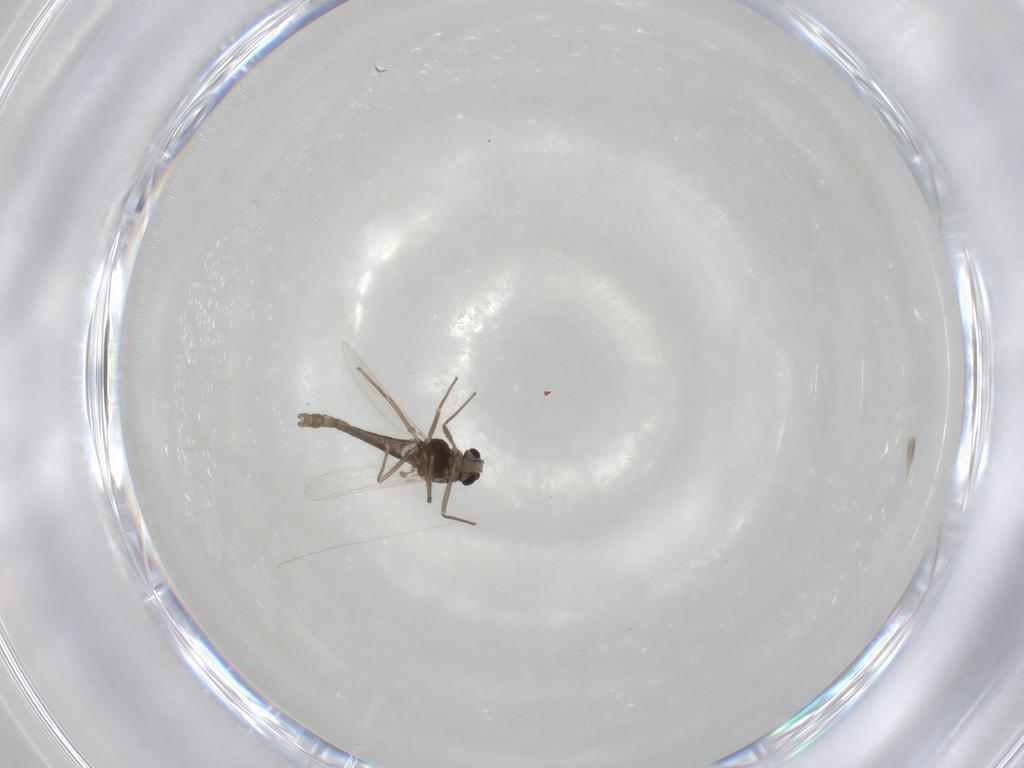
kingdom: Animalia
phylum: Arthropoda
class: Insecta
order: Diptera
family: Chironomidae
